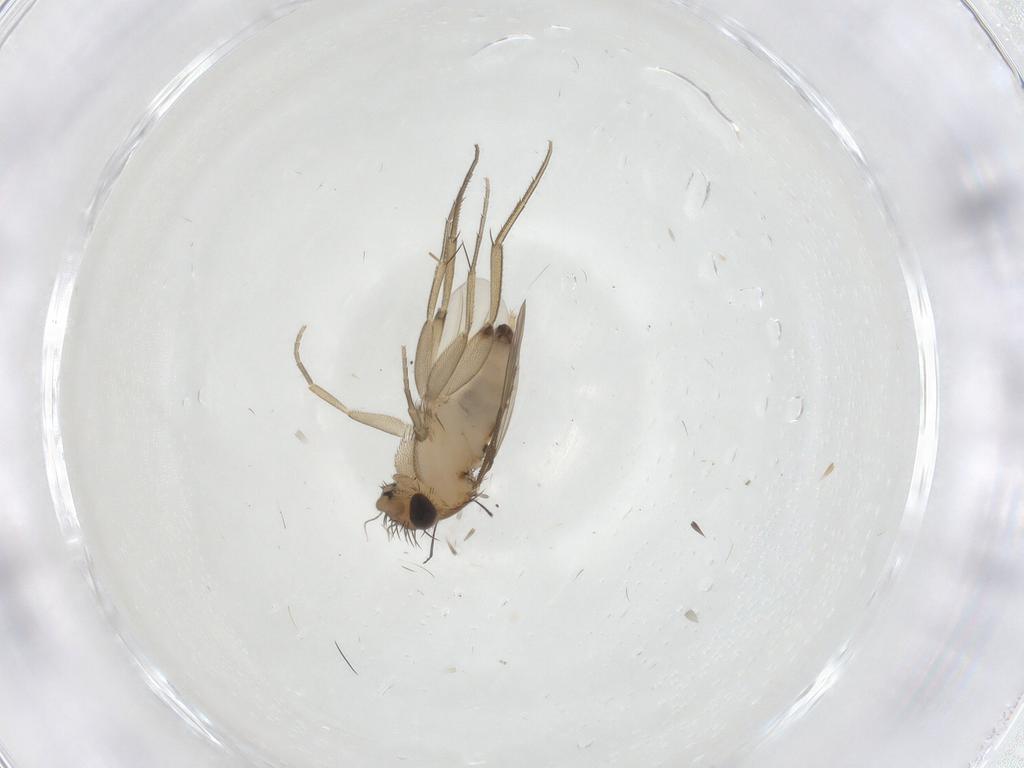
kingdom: Animalia
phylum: Arthropoda
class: Insecta
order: Diptera
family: Phoridae
